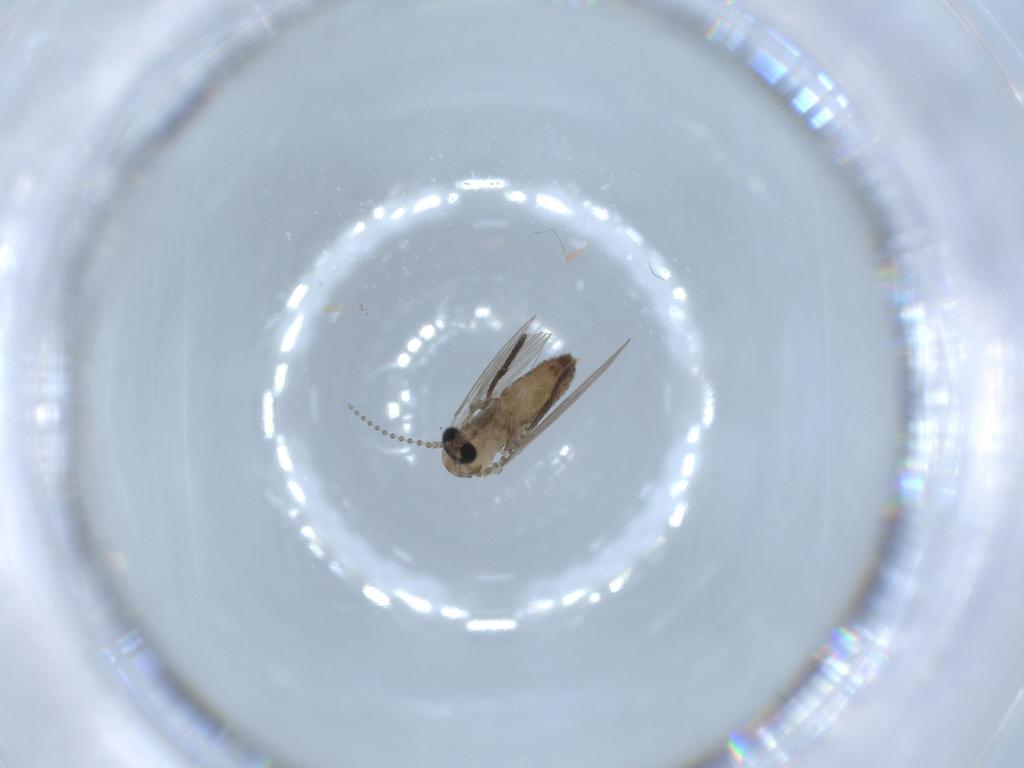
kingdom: Animalia
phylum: Arthropoda
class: Insecta
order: Diptera
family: Psychodidae
